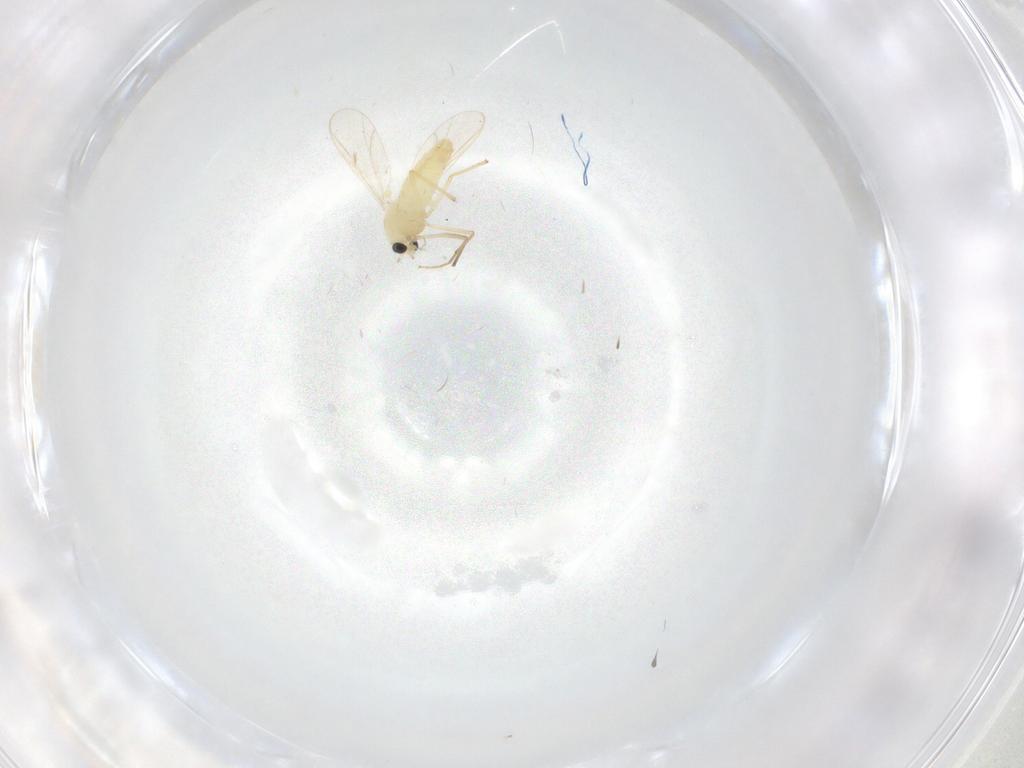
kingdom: Animalia
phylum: Arthropoda
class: Insecta
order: Diptera
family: Chironomidae
